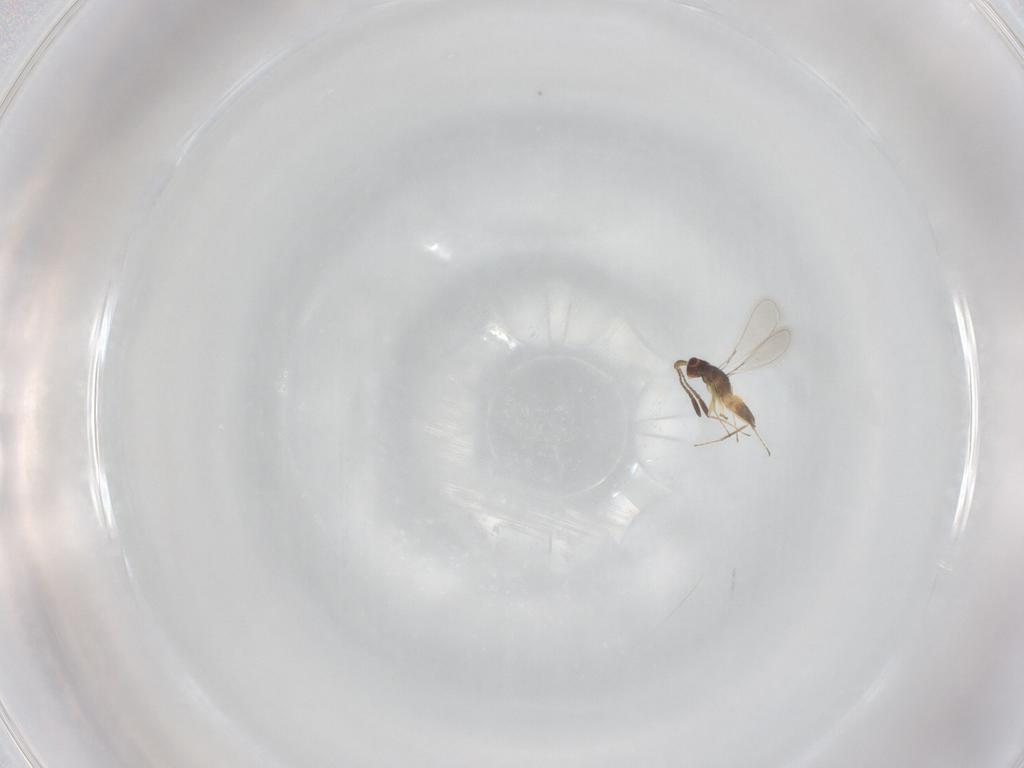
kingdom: Animalia
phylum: Arthropoda
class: Insecta
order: Hymenoptera
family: Mymaridae
